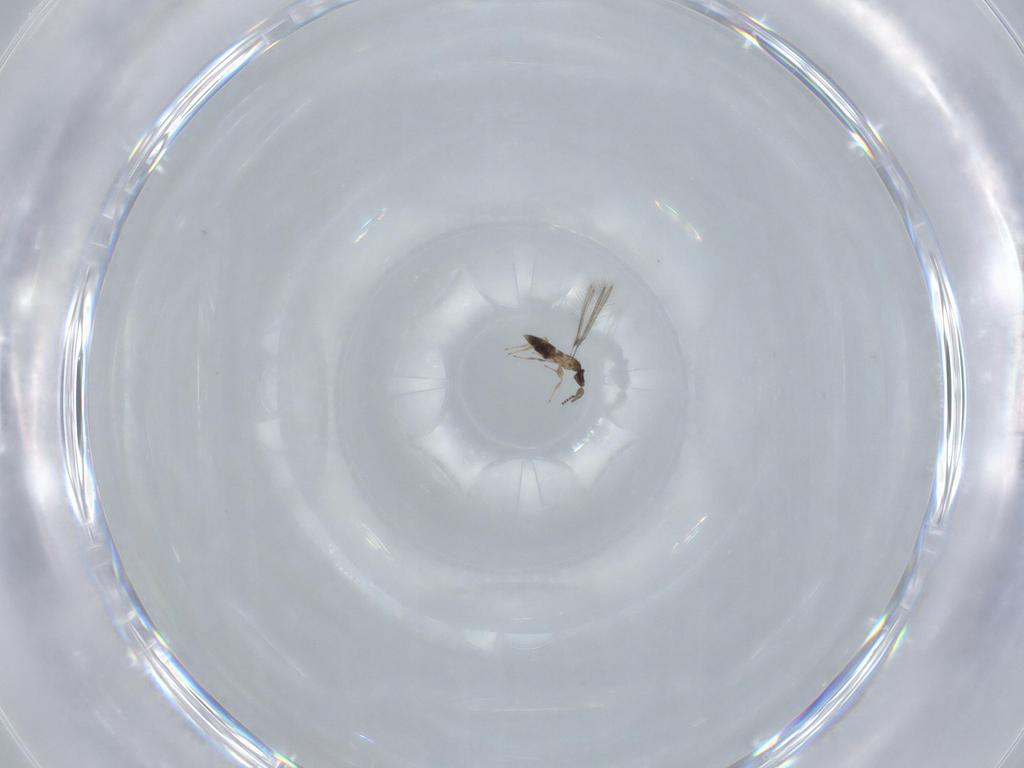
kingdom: Animalia
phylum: Arthropoda
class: Insecta
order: Hymenoptera
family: Mymaridae
